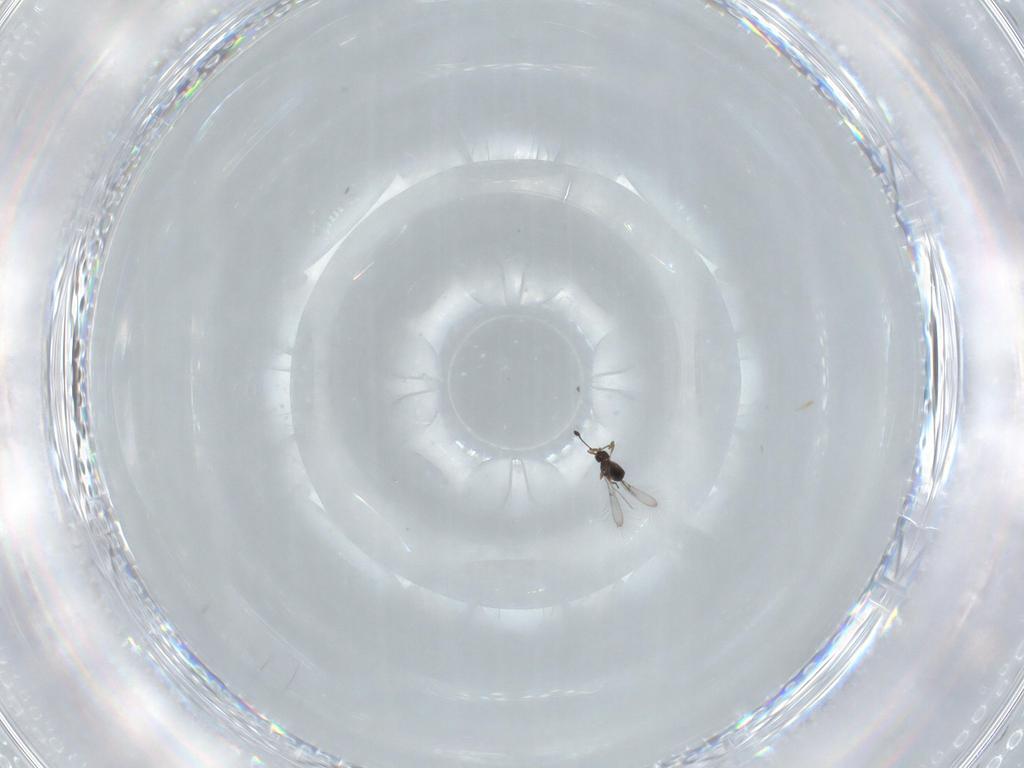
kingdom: Animalia
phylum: Arthropoda
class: Insecta
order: Hymenoptera
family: Mymaridae
